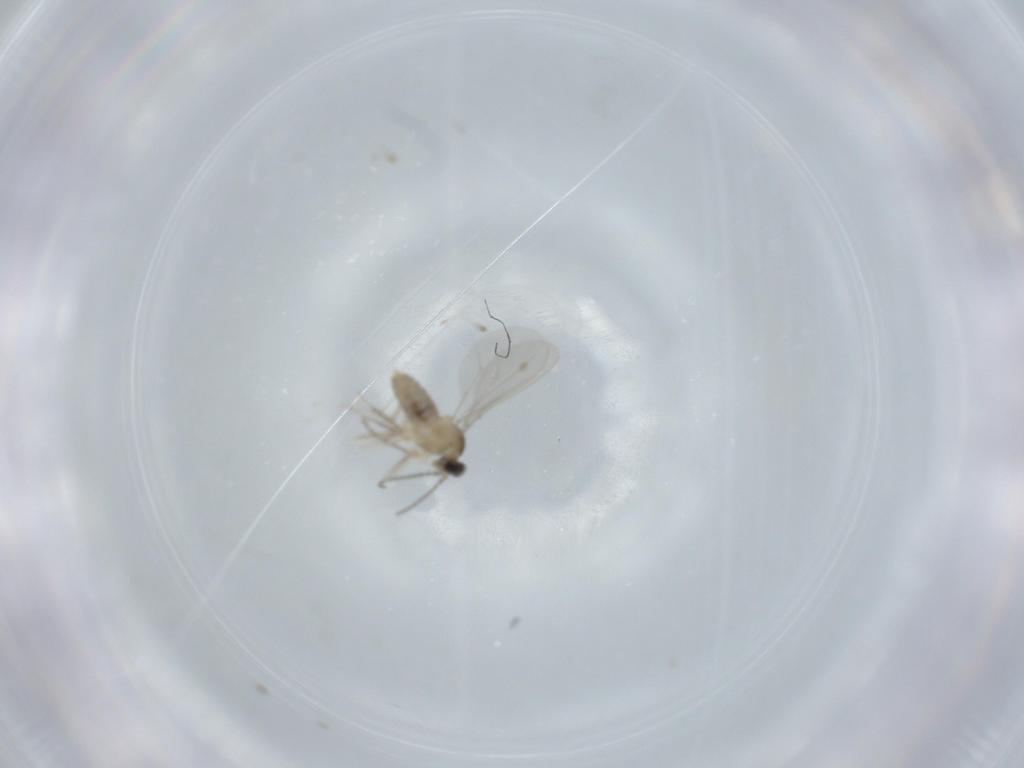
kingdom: Animalia
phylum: Arthropoda
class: Insecta
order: Diptera
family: Cecidomyiidae
